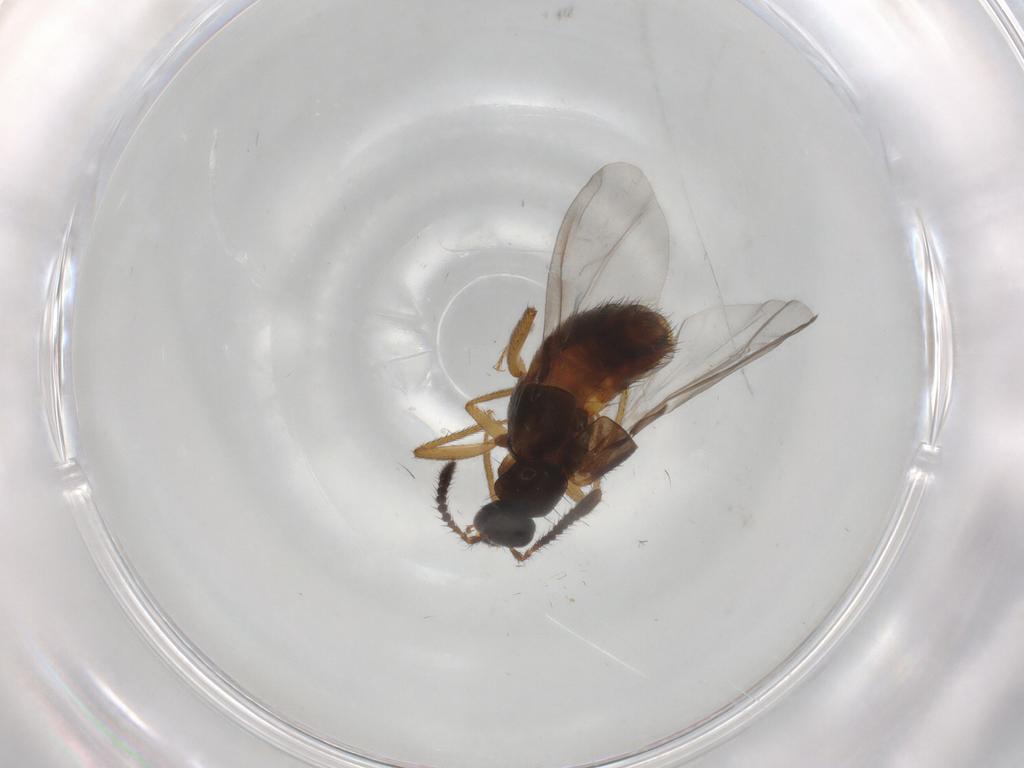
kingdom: Animalia
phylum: Arthropoda
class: Insecta
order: Coleoptera
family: Staphylinidae
